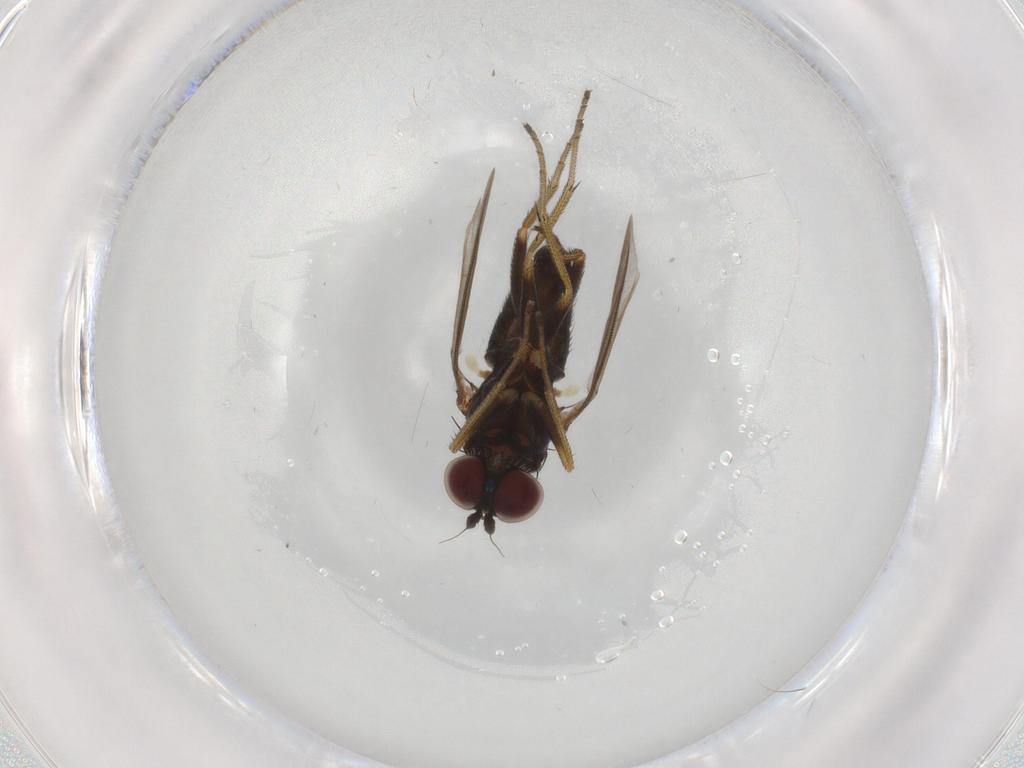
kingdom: Animalia
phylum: Arthropoda
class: Insecta
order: Diptera
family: Dolichopodidae
